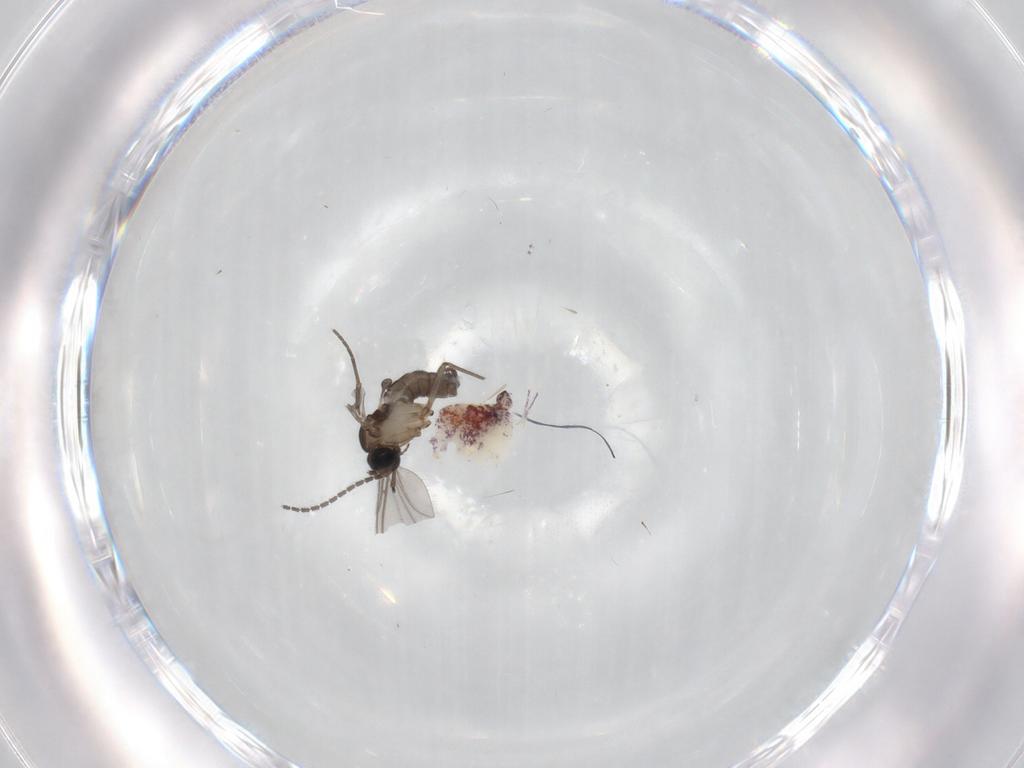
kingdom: Animalia
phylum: Arthropoda
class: Insecta
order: Diptera
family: Sciaridae
